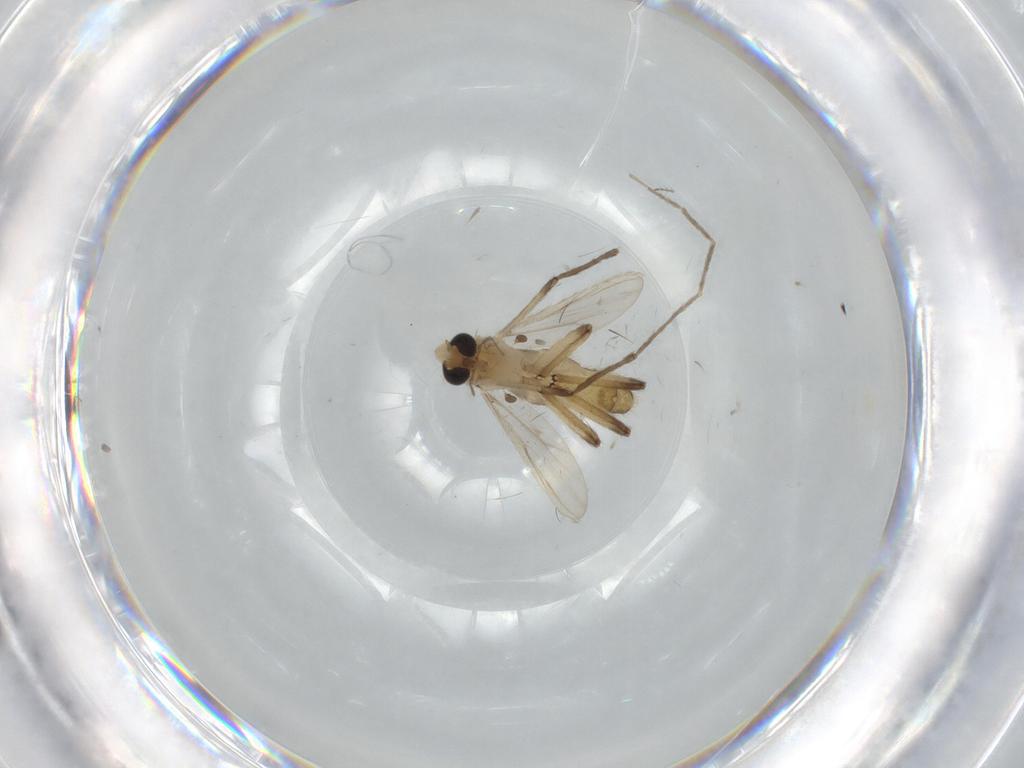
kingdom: Animalia
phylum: Arthropoda
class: Insecta
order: Diptera
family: Chironomidae
